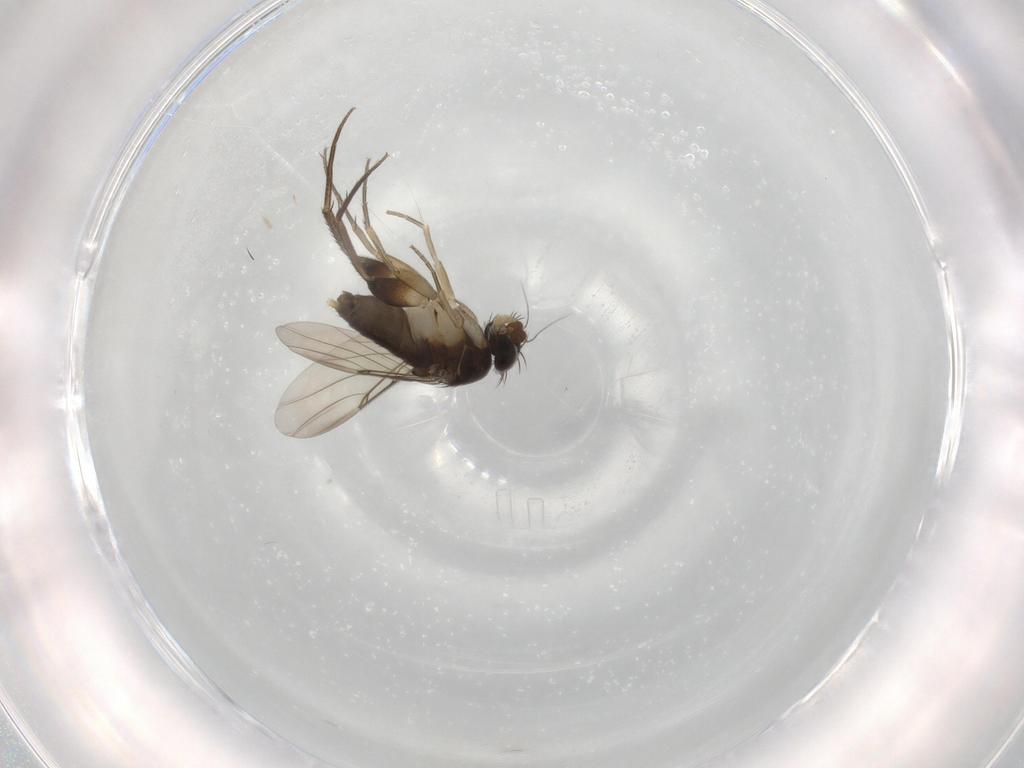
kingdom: Animalia
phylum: Arthropoda
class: Insecta
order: Diptera
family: Phoridae
